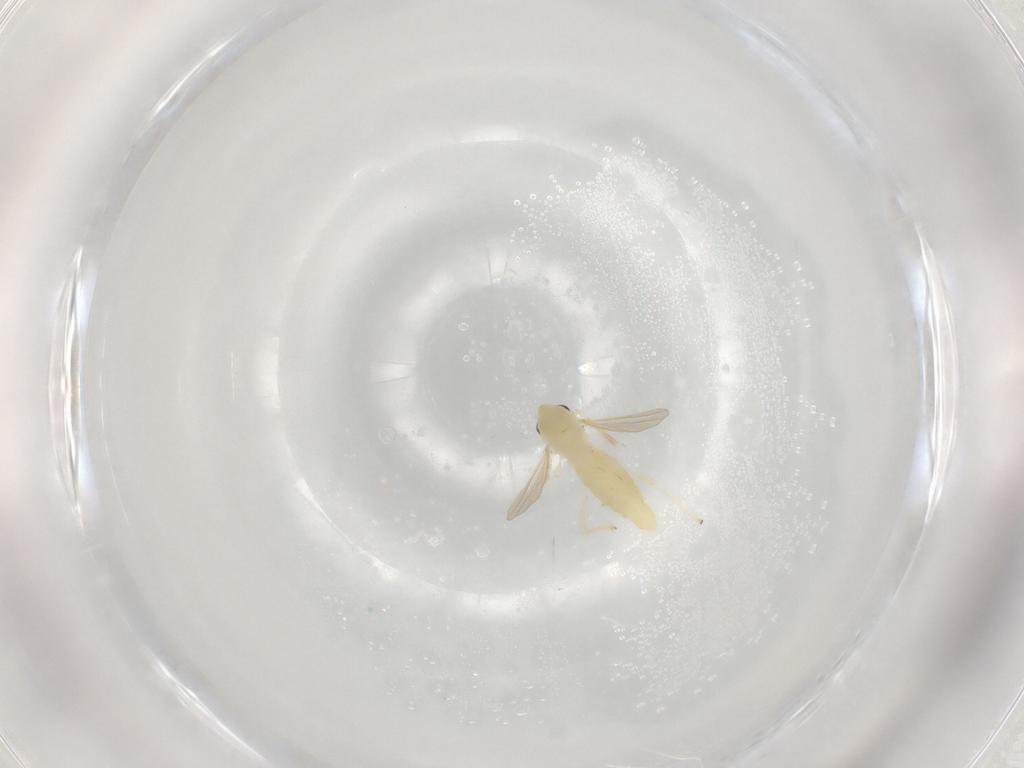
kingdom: Animalia
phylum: Arthropoda
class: Insecta
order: Diptera
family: Chironomidae
